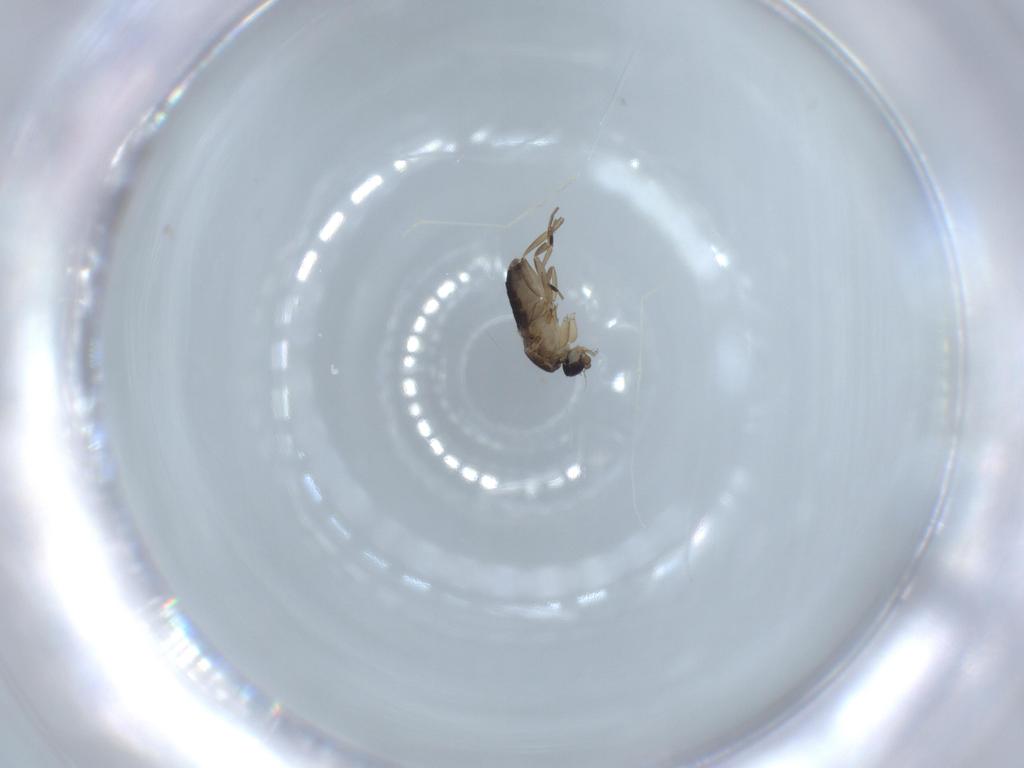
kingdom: Animalia
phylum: Arthropoda
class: Insecta
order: Diptera
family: Phoridae
